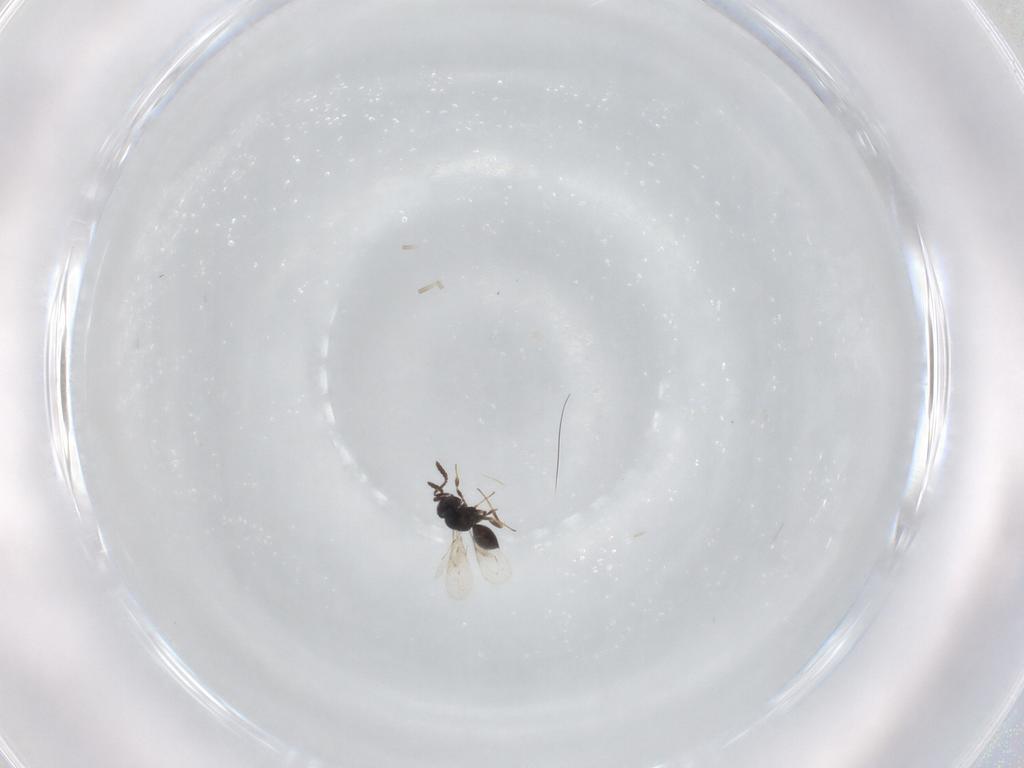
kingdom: Animalia
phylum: Arthropoda
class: Insecta
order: Hymenoptera
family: Scelionidae
